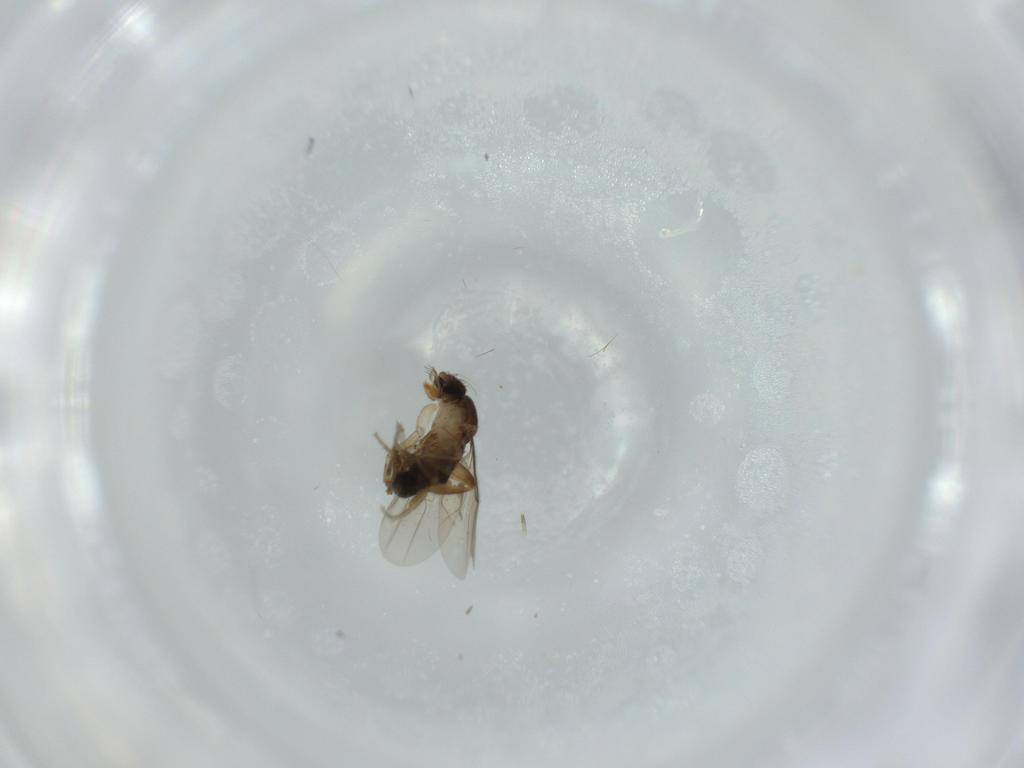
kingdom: Animalia
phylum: Arthropoda
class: Insecta
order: Diptera
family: Phoridae
